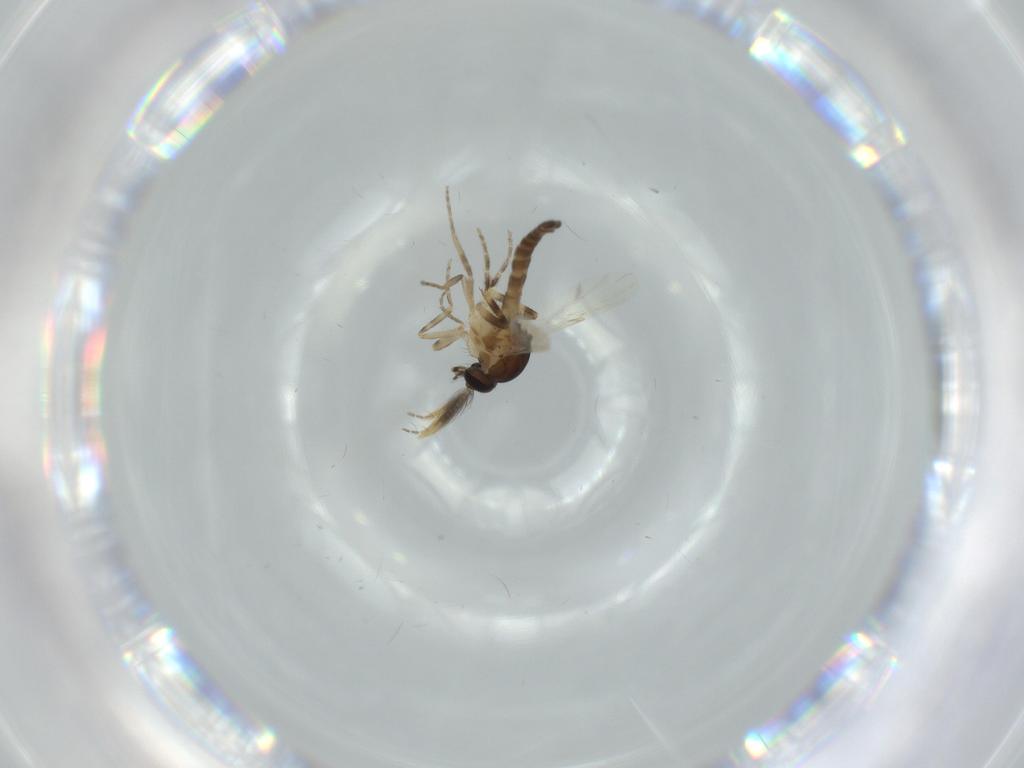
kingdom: Animalia
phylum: Arthropoda
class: Insecta
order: Diptera
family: Ceratopogonidae
